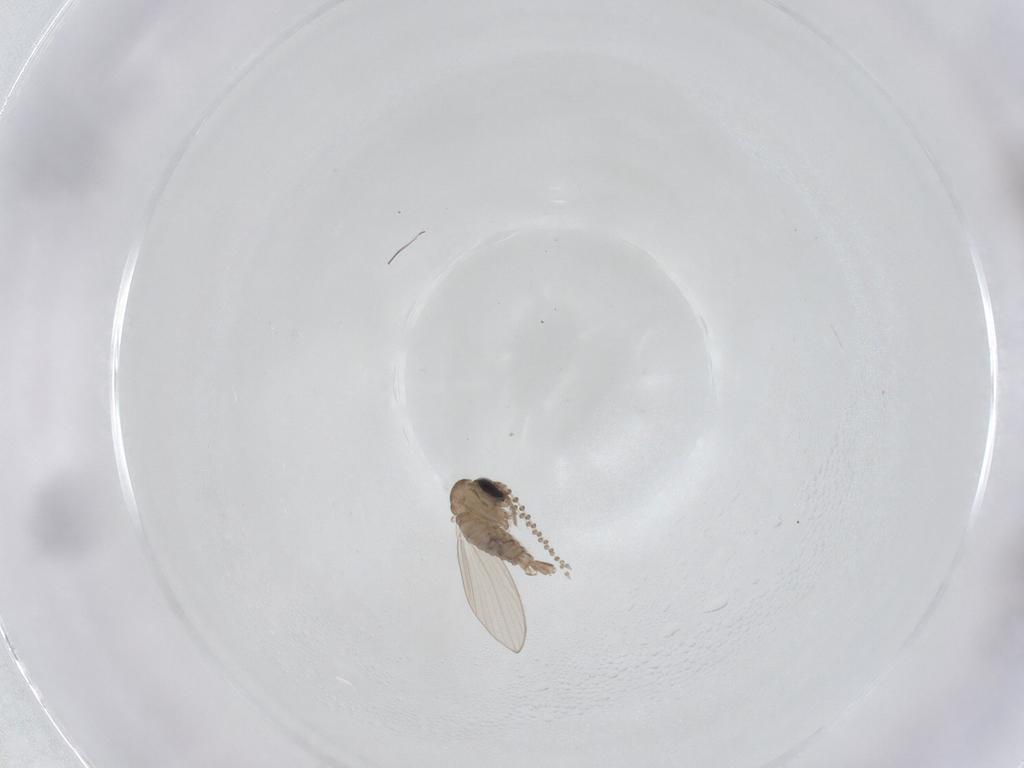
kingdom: Animalia
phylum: Arthropoda
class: Insecta
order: Diptera
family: Psychodidae
